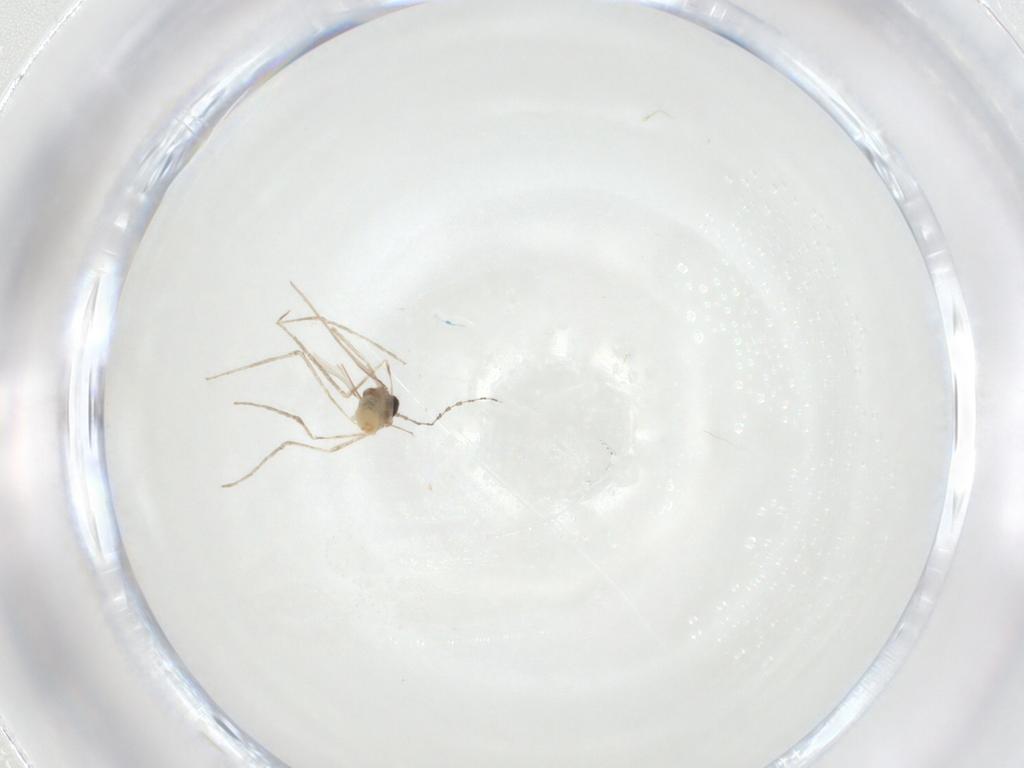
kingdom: Animalia
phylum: Arthropoda
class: Insecta
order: Diptera
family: Cecidomyiidae
